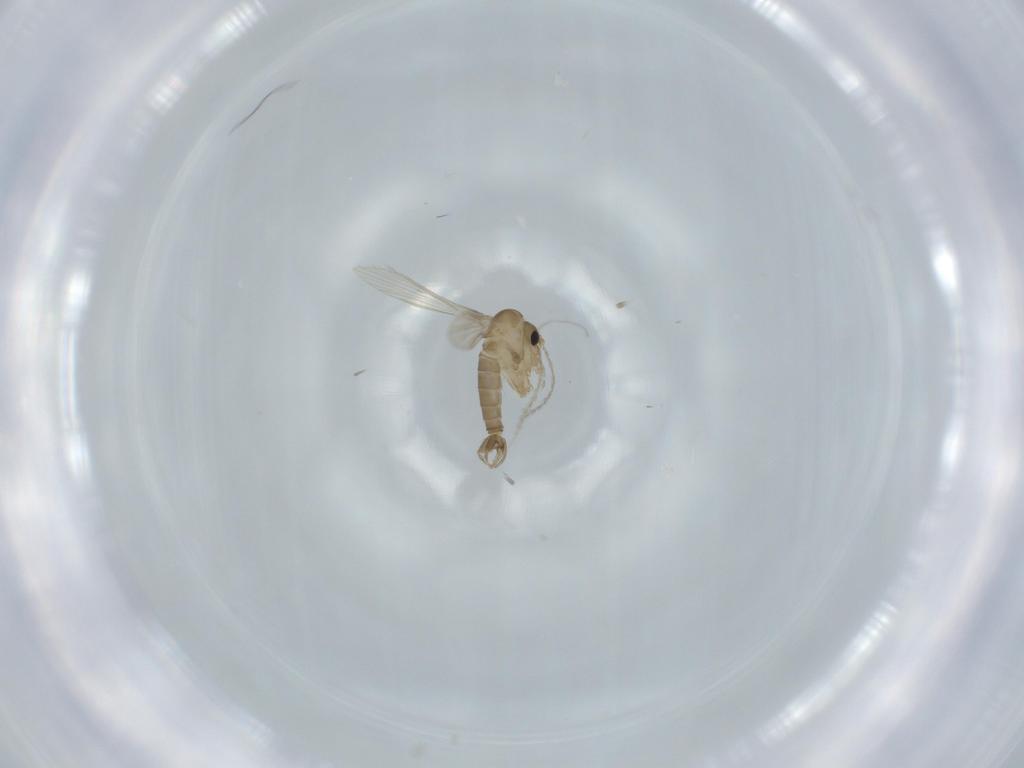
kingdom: Animalia
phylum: Arthropoda
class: Insecta
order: Diptera
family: Psychodidae
